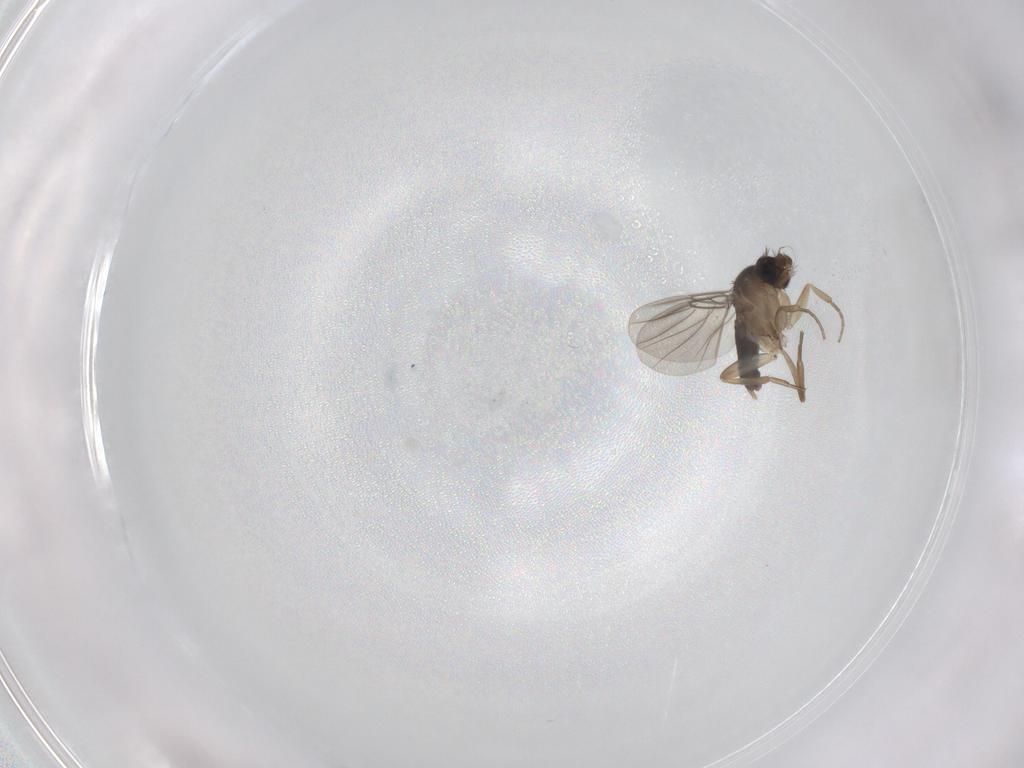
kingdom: Animalia
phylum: Arthropoda
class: Insecta
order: Diptera
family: Phoridae
